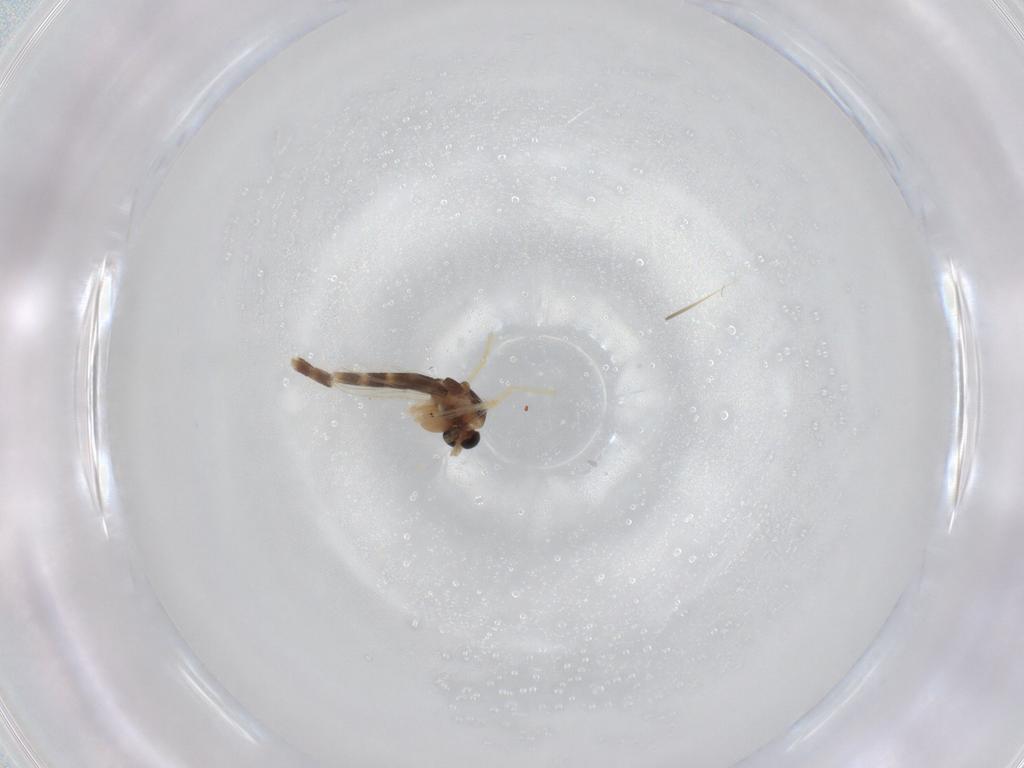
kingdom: Animalia
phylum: Arthropoda
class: Insecta
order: Diptera
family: Chironomidae
